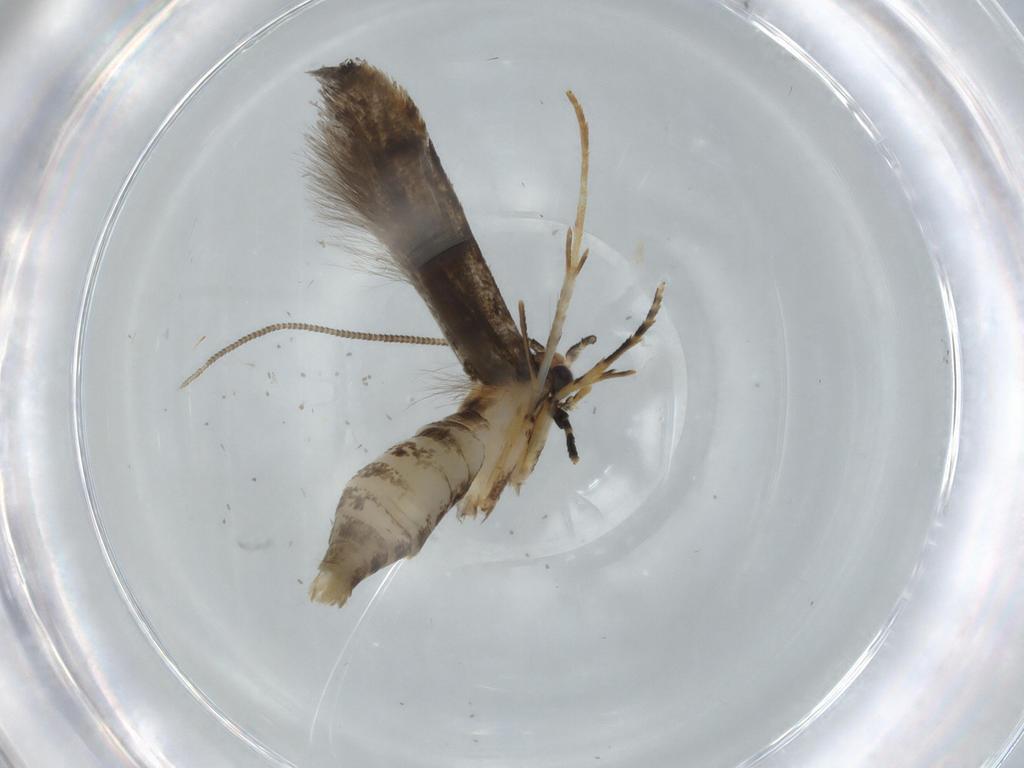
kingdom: Animalia
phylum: Arthropoda
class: Insecta
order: Lepidoptera
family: Tineidae
